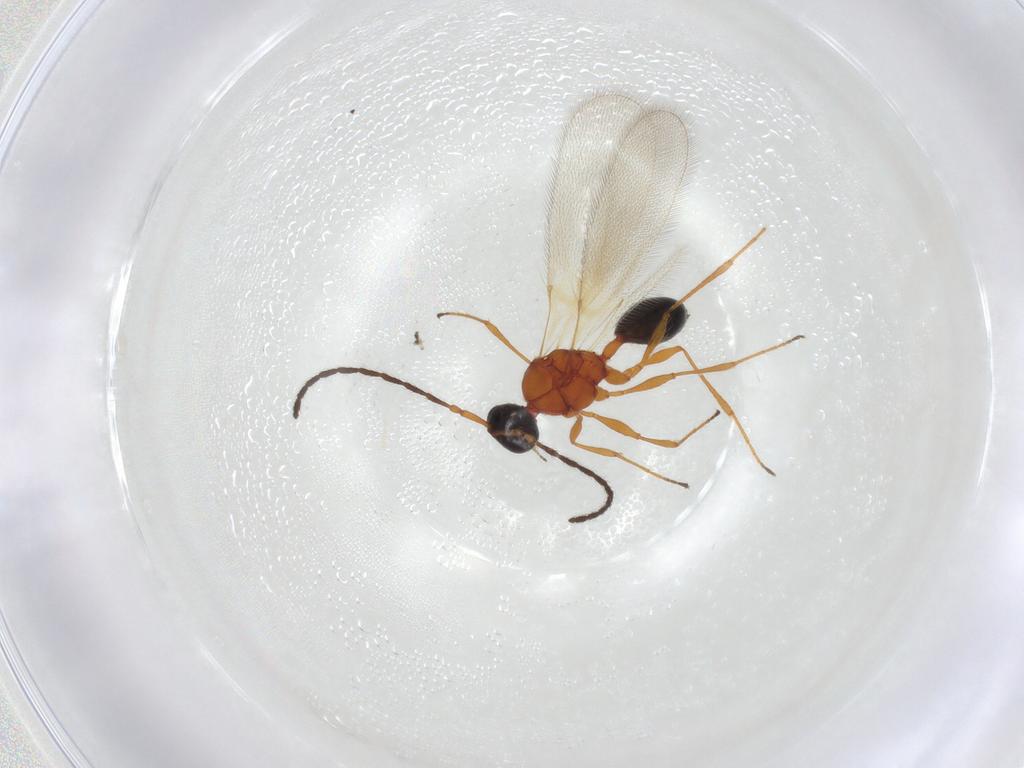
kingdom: Animalia
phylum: Arthropoda
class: Insecta
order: Hymenoptera
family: Diapriidae
